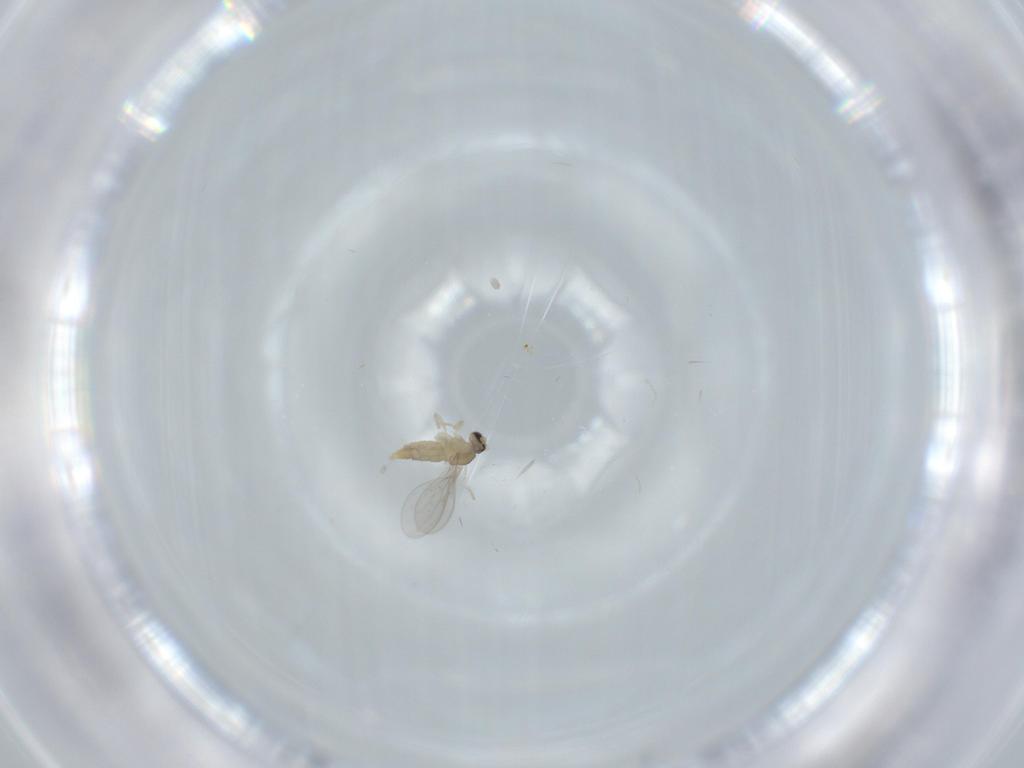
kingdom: Animalia
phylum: Arthropoda
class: Insecta
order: Diptera
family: Cecidomyiidae
